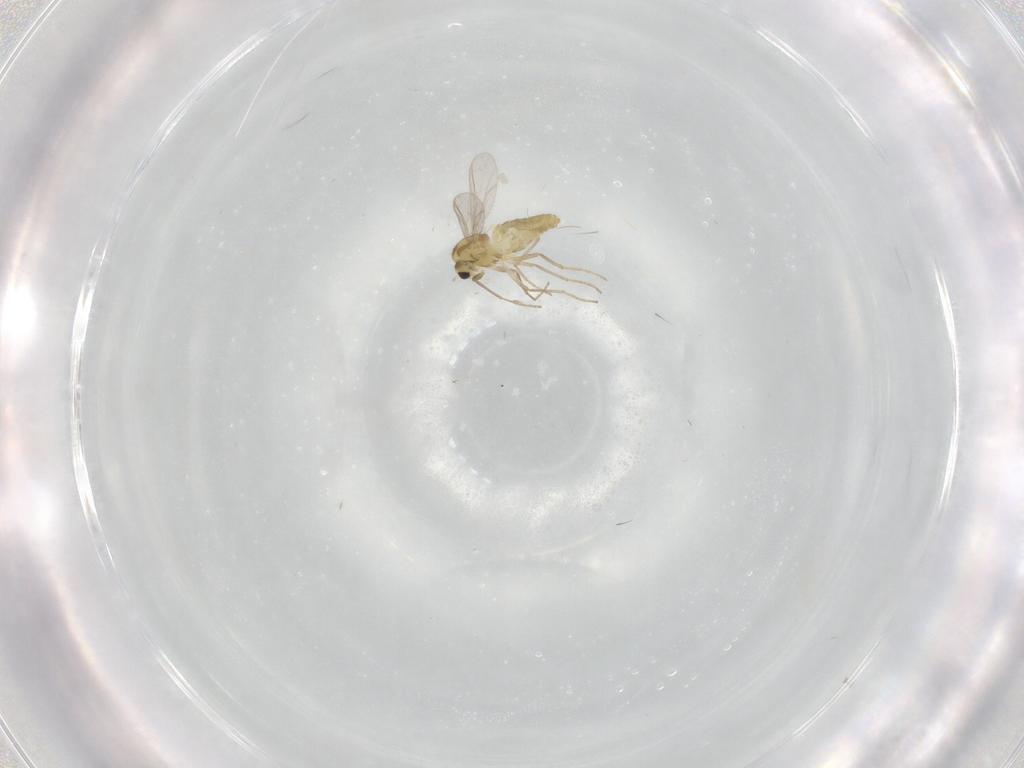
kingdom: Animalia
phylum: Arthropoda
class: Insecta
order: Diptera
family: Chironomidae
